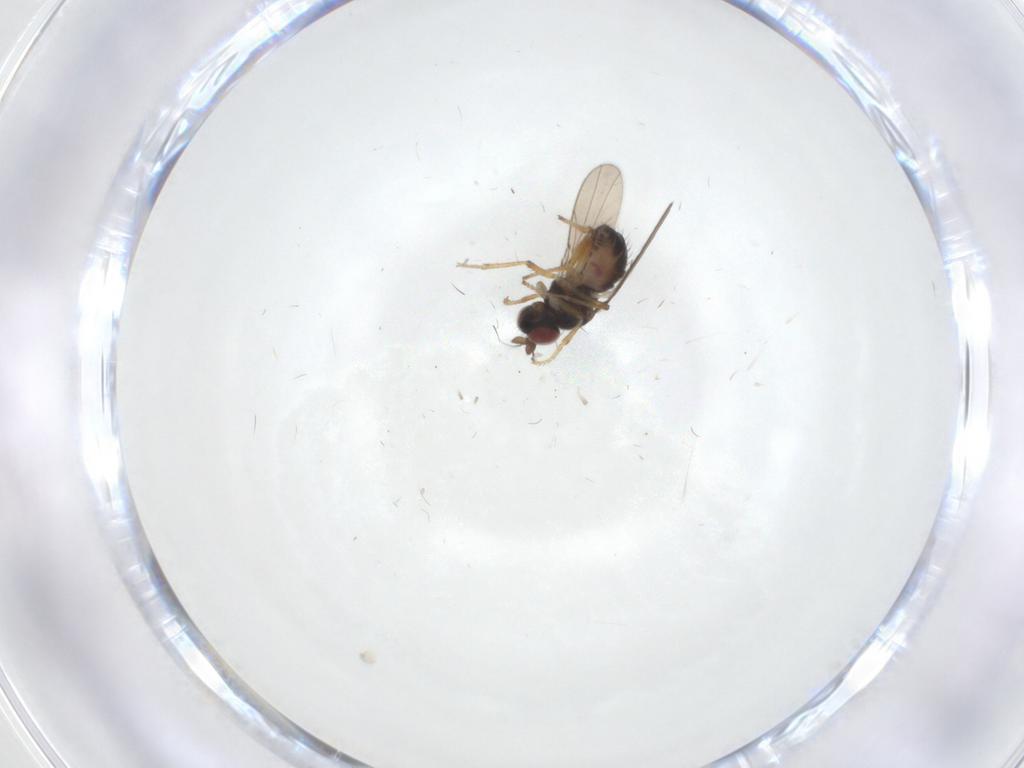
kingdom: Animalia
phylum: Arthropoda
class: Insecta
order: Diptera
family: Ephydridae
